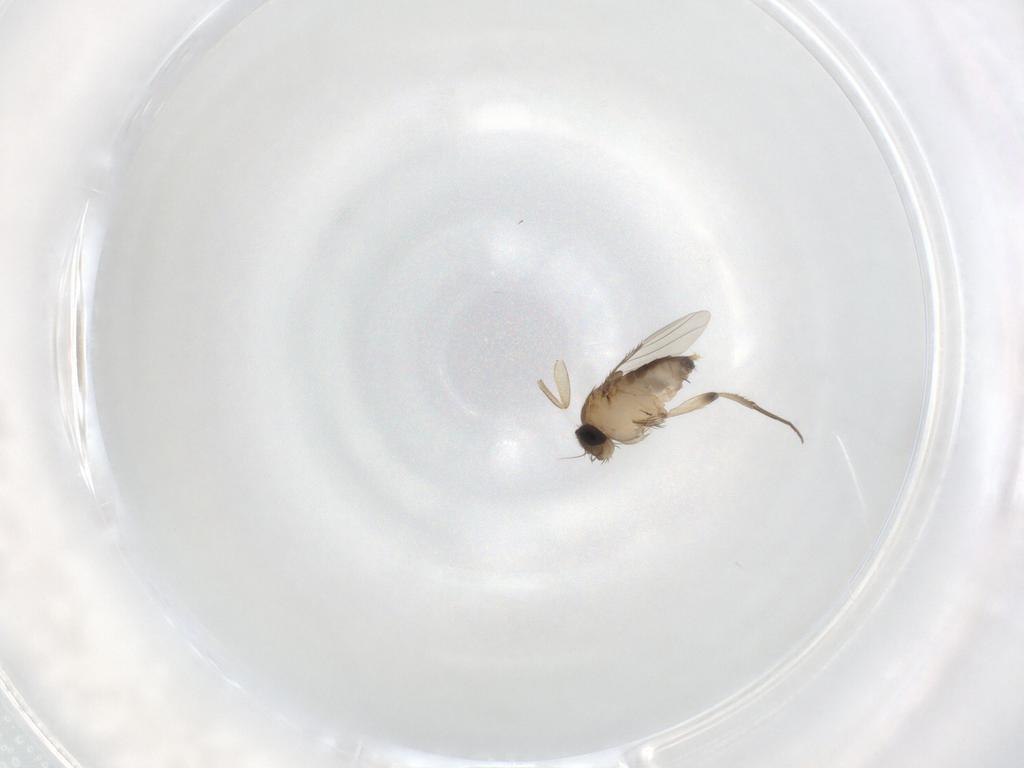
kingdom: Animalia
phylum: Arthropoda
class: Insecta
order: Diptera
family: Phoridae
